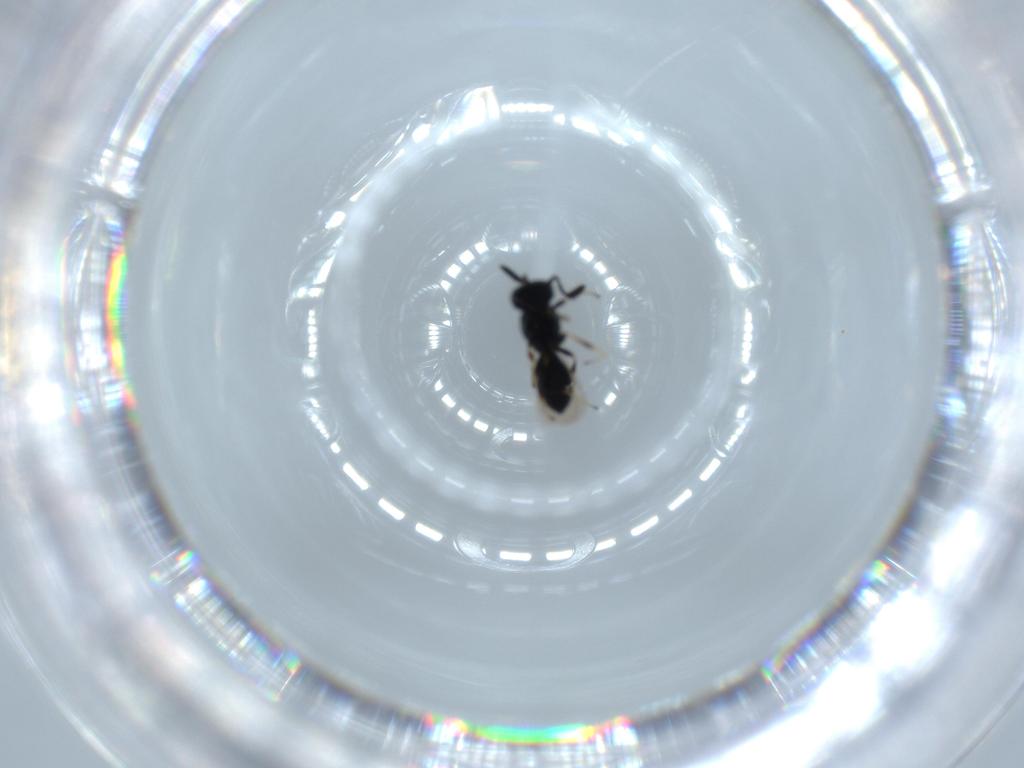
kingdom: Animalia
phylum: Arthropoda
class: Insecta
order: Hymenoptera
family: Scelionidae
